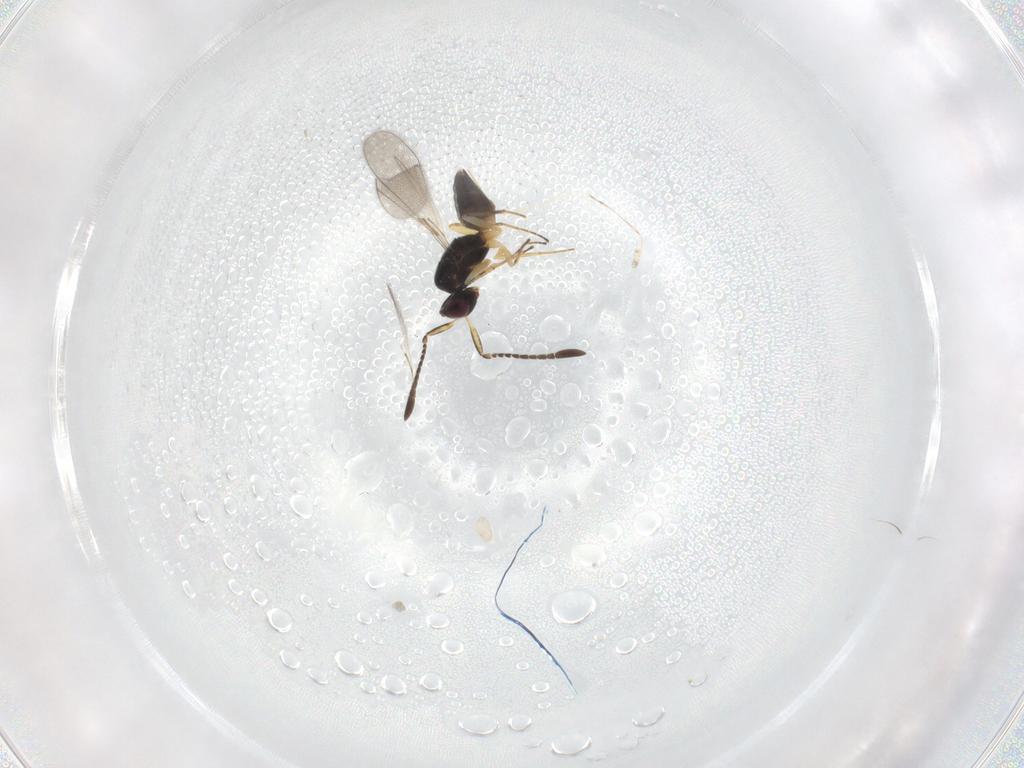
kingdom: Animalia
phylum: Arthropoda
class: Insecta
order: Hymenoptera
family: Mymaridae
